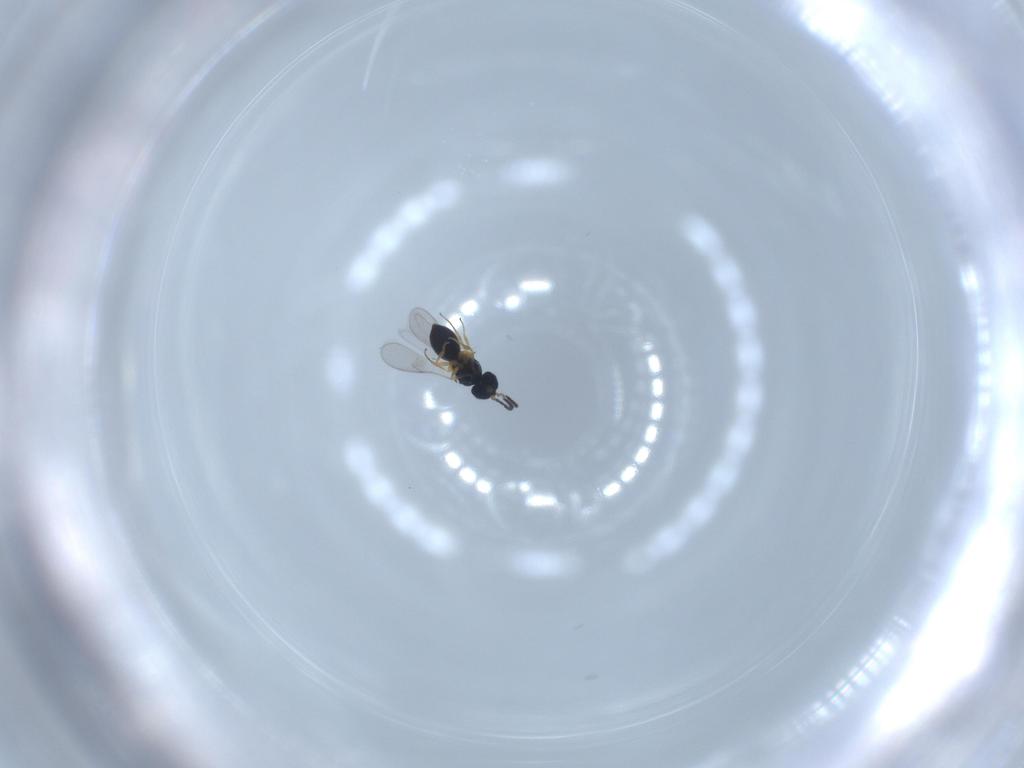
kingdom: Animalia
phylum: Arthropoda
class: Insecta
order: Hymenoptera
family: Scelionidae
